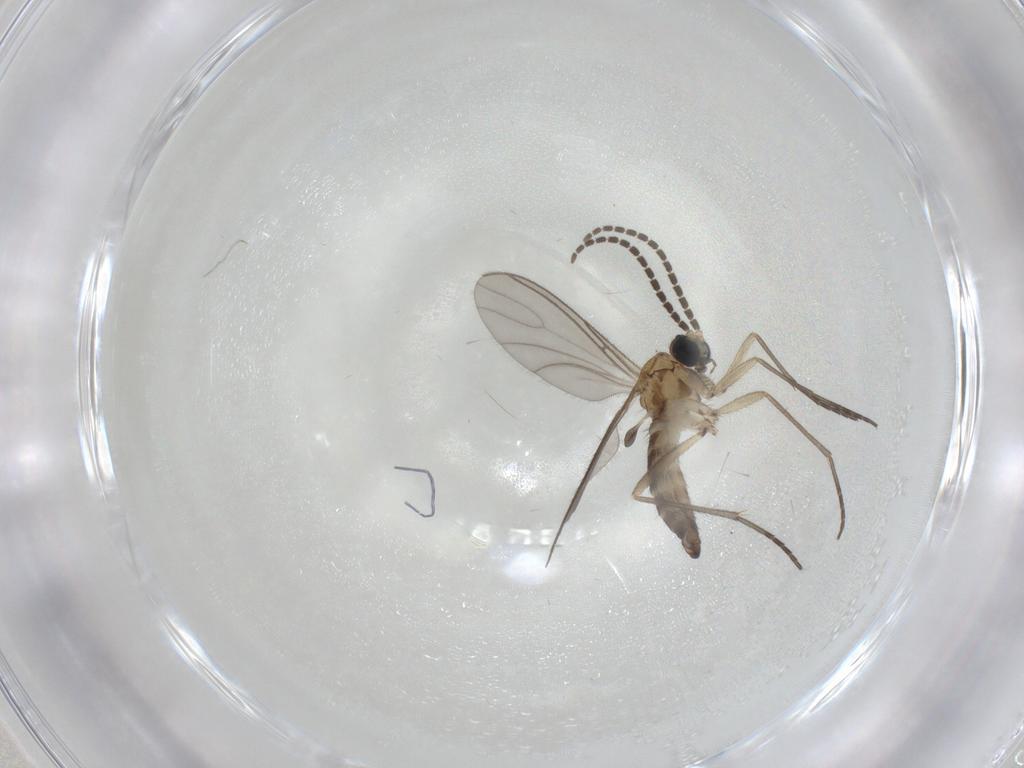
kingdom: Animalia
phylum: Arthropoda
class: Insecta
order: Diptera
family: Sciaridae
